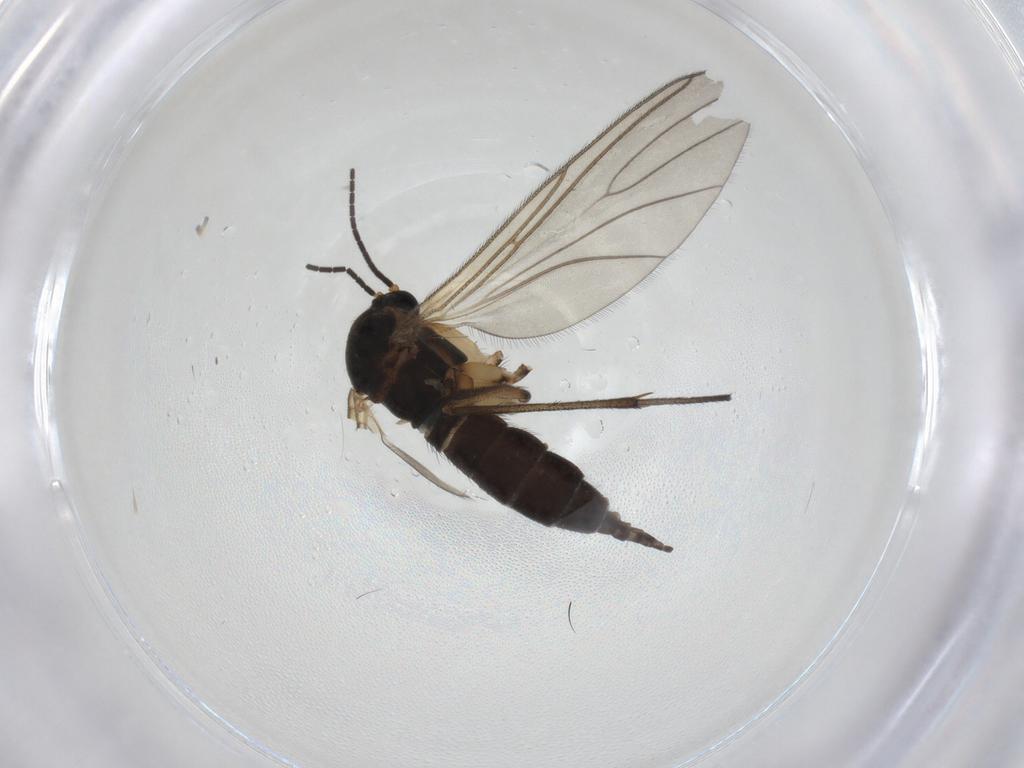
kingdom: Animalia
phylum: Arthropoda
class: Insecta
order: Diptera
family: Sciaridae
